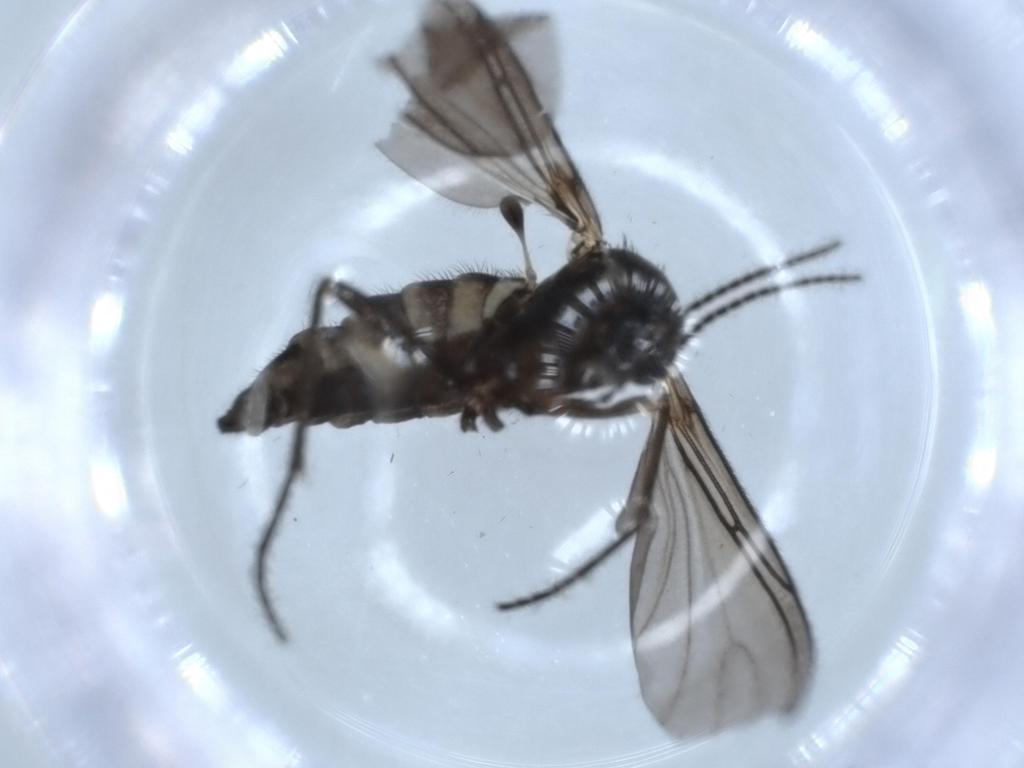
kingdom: Animalia
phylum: Arthropoda
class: Insecta
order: Diptera
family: Sciaridae
